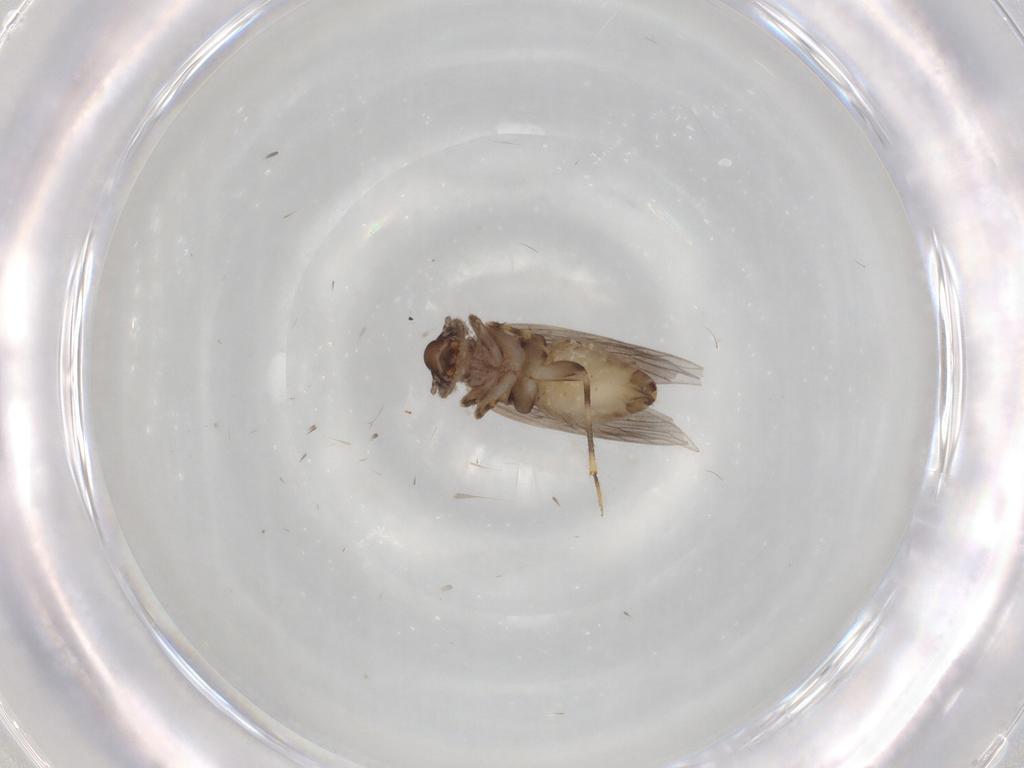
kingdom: Animalia
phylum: Arthropoda
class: Insecta
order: Psocodea
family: Lepidopsocidae
